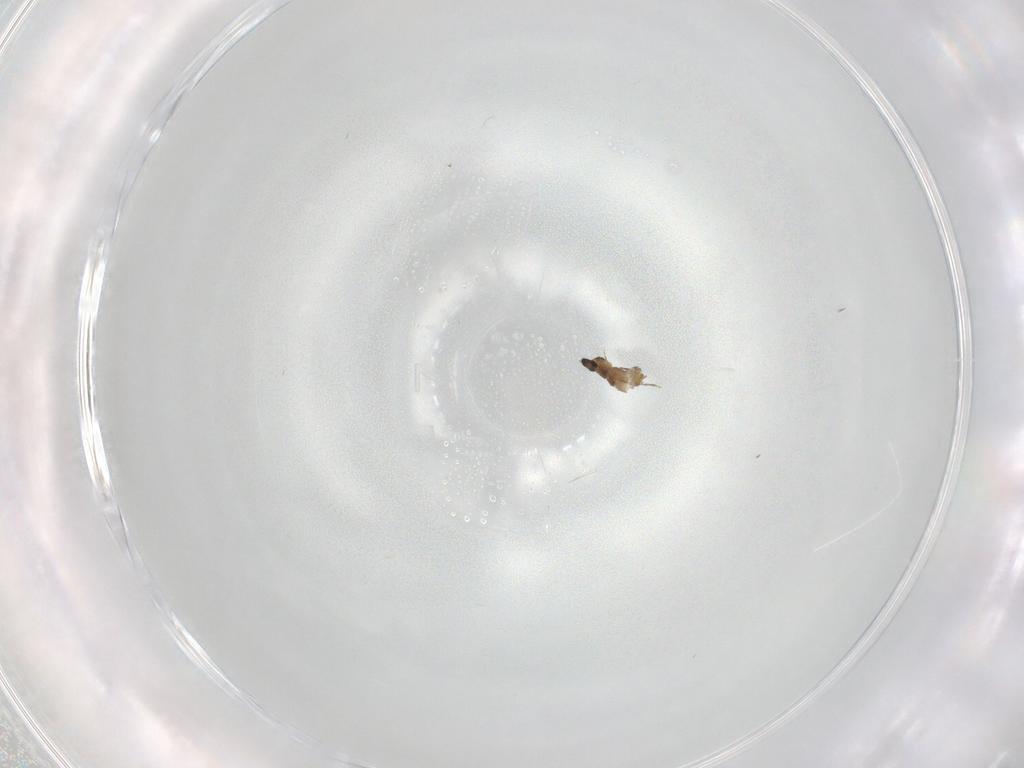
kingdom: Animalia
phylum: Arthropoda
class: Insecta
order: Diptera
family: Cecidomyiidae
